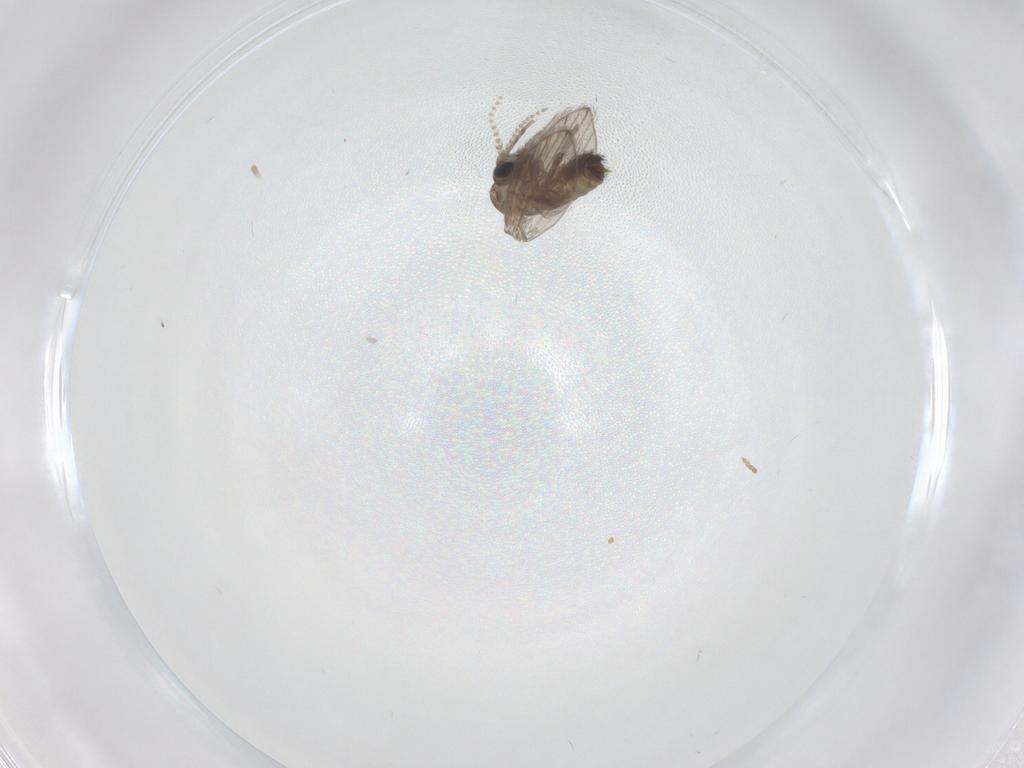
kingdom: Animalia
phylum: Arthropoda
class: Insecta
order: Diptera
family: Psychodidae
